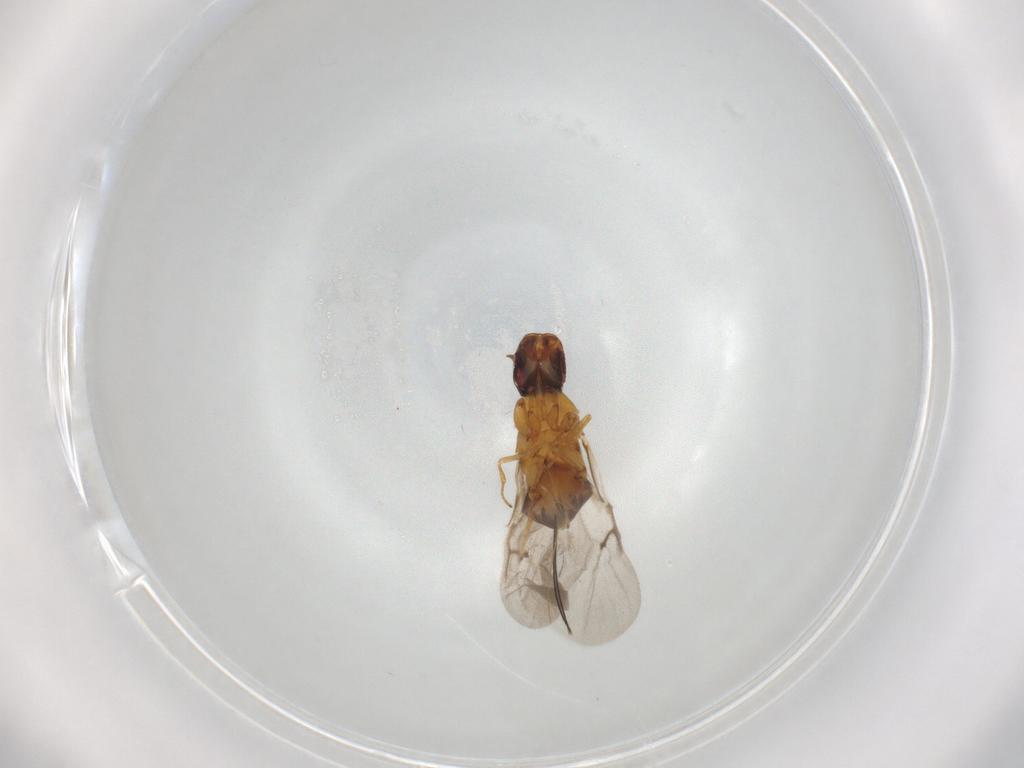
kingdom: Animalia
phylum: Arthropoda
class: Insecta
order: Hymenoptera
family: Agaonidae
